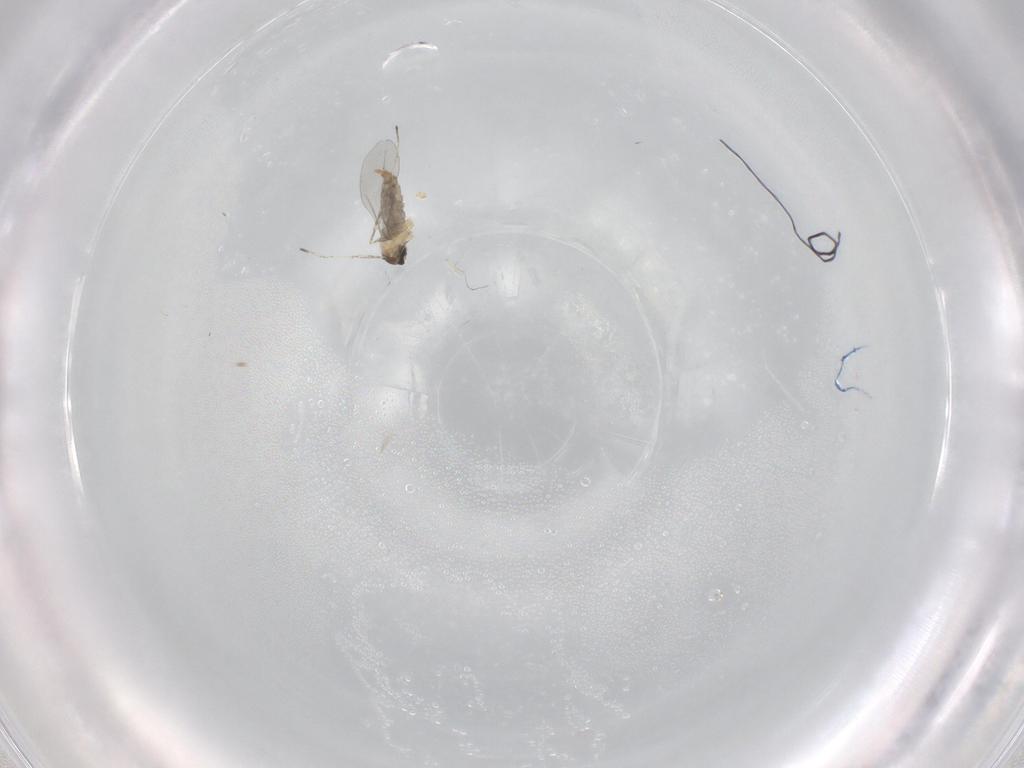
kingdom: Animalia
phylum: Arthropoda
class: Insecta
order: Diptera
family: Cecidomyiidae
